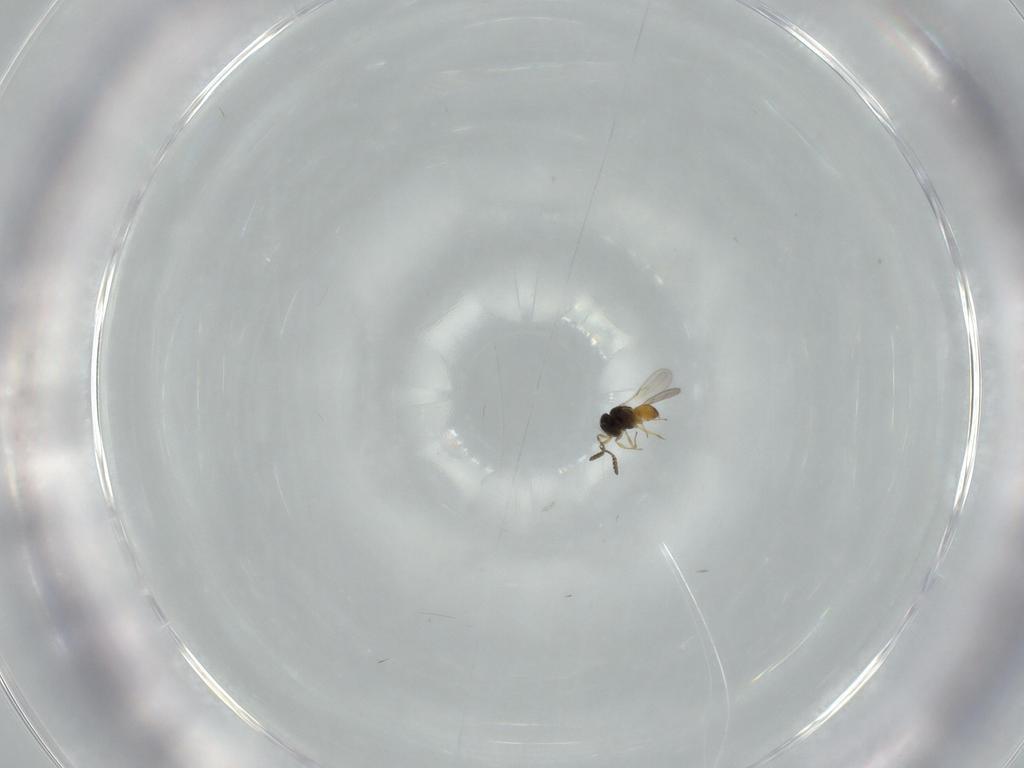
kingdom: Animalia
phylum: Arthropoda
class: Insecta
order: Hymenoptera
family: Scelionidae
